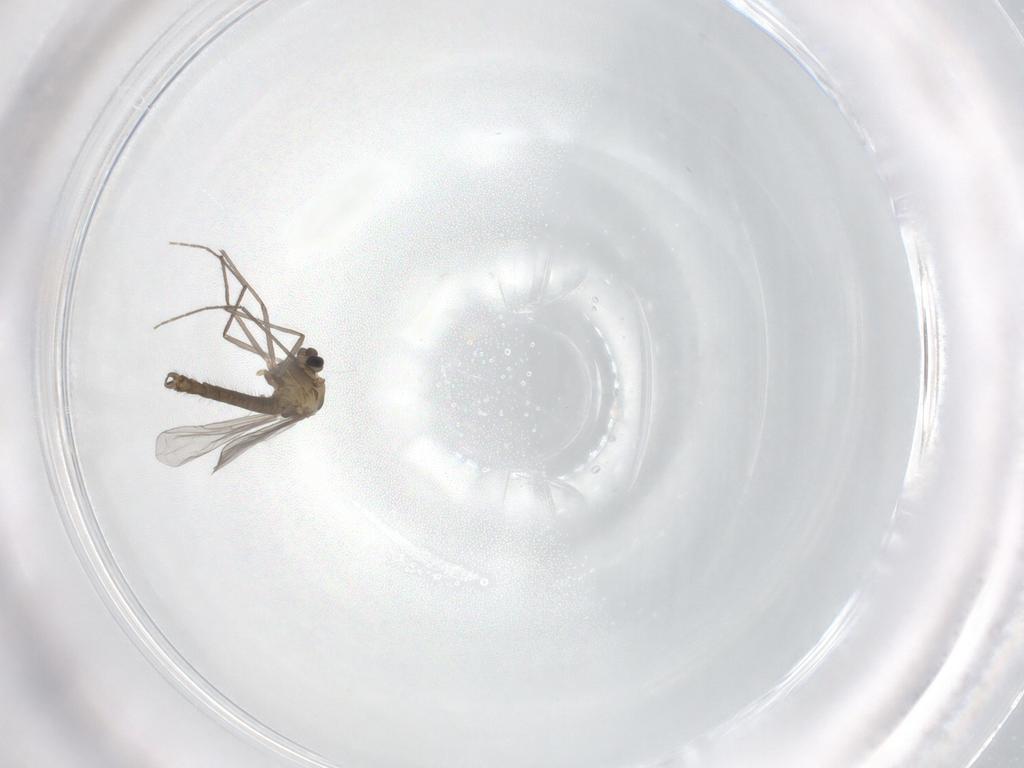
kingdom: Animalia
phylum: Arthropoda
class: Insecta
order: Diptera
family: Chironomidae
